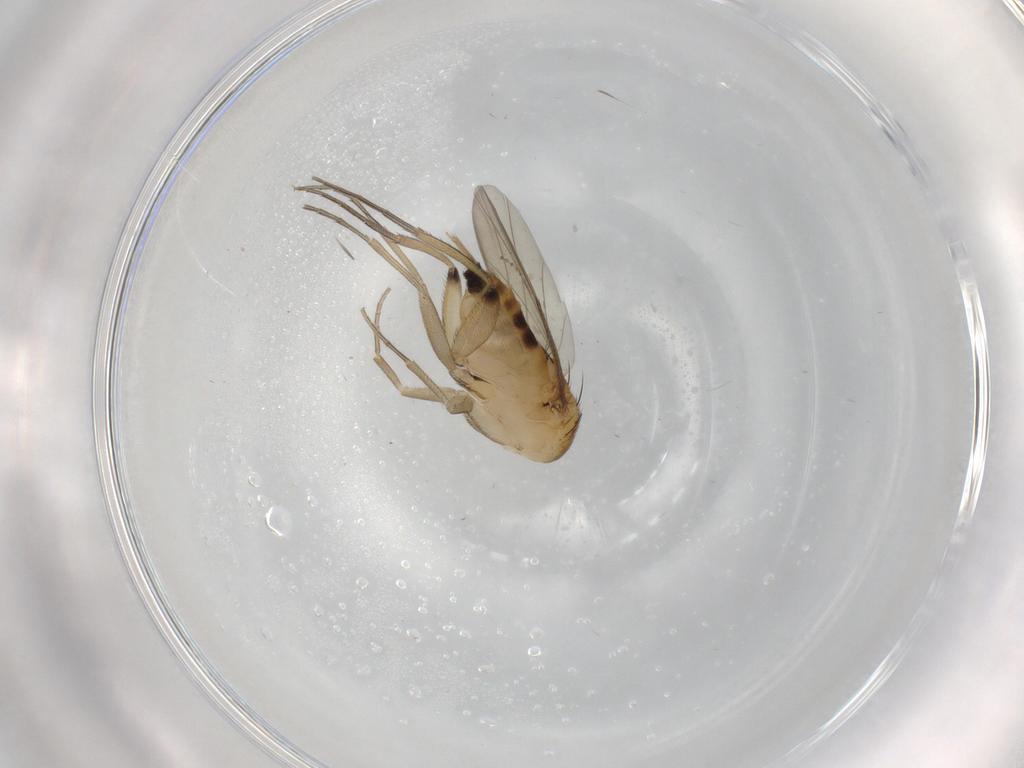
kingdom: Animalia
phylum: Arthropoda
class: Insecta
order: Diptera
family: Phoridae
